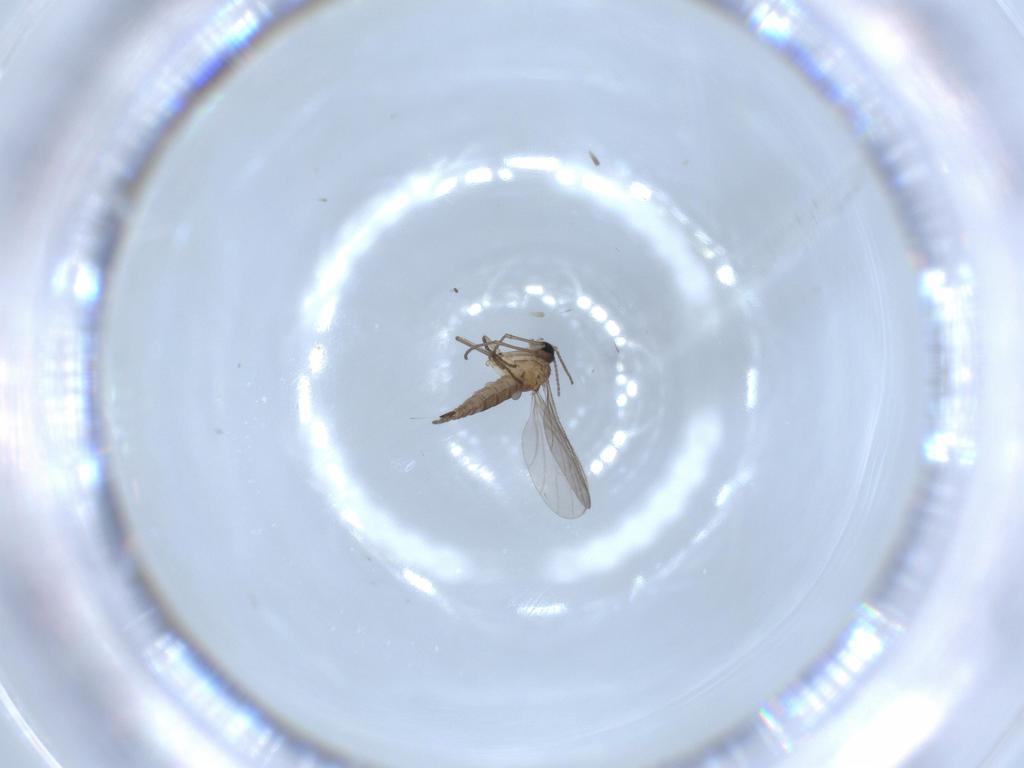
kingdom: Animalia
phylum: Arthropoda
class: Insecta
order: Diptera
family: Sciaridae
